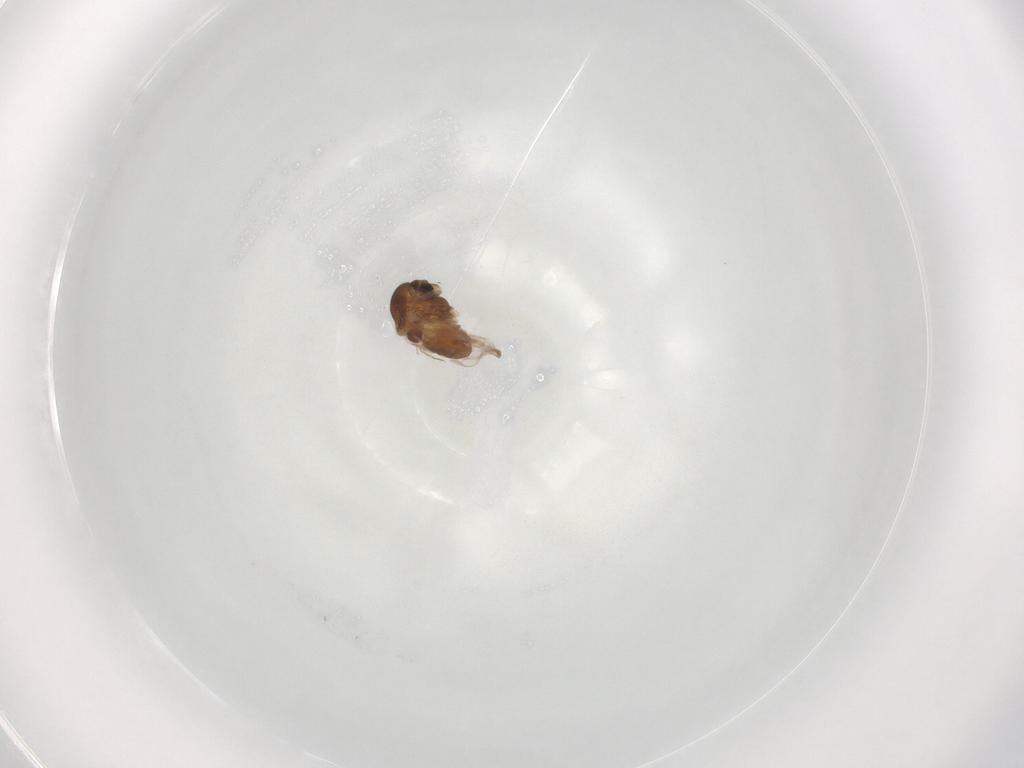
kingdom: Animalia
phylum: Arthropoda
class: Insecta
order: Diptera
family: Chironomidae
